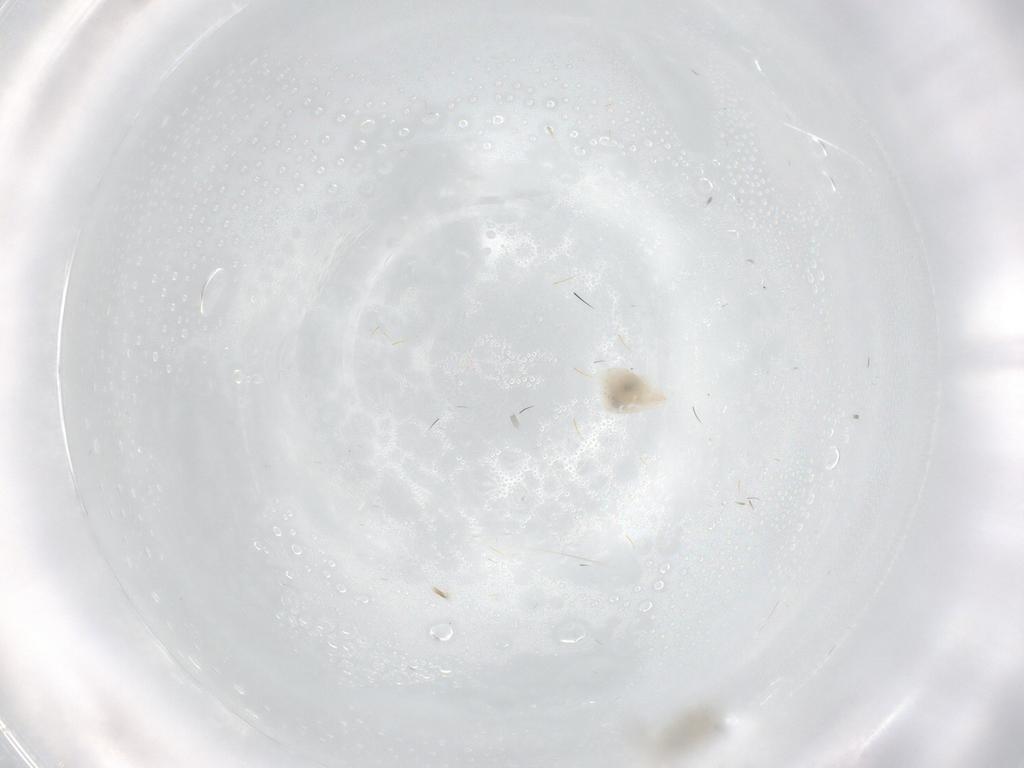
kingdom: Animalia
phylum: Arthropoda
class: Insecta
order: Psocodea
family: Caeciliusidae
